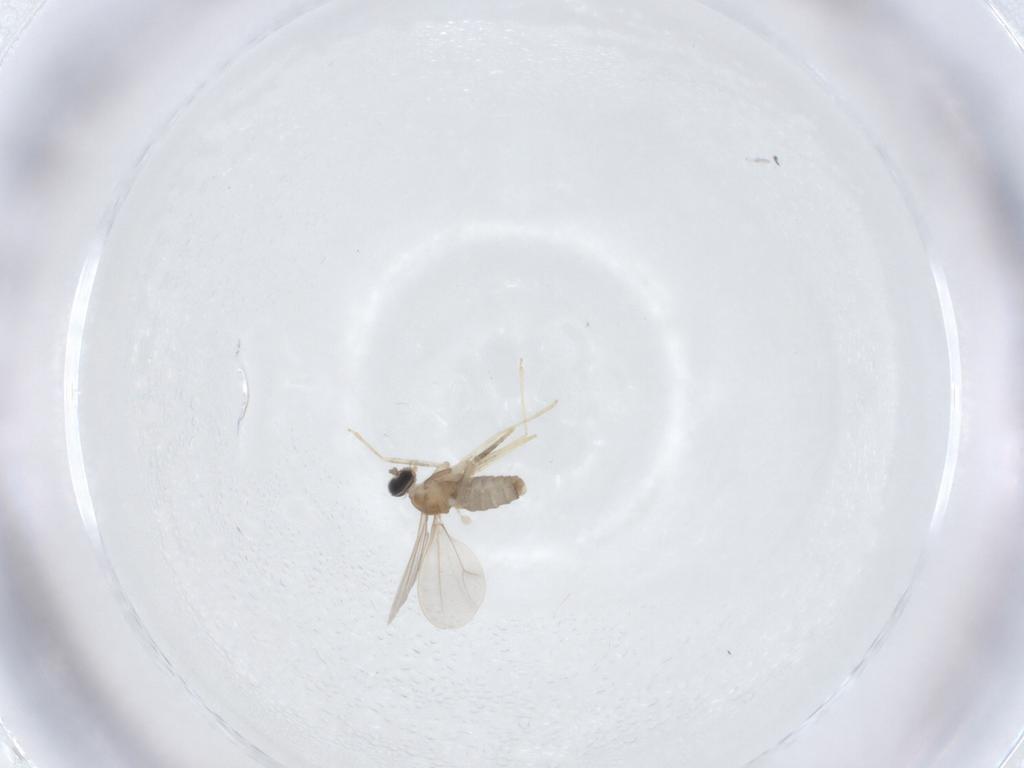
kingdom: Animalia
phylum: Arthropoda
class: Insecta
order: Diptera
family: Cecidomyiidae
